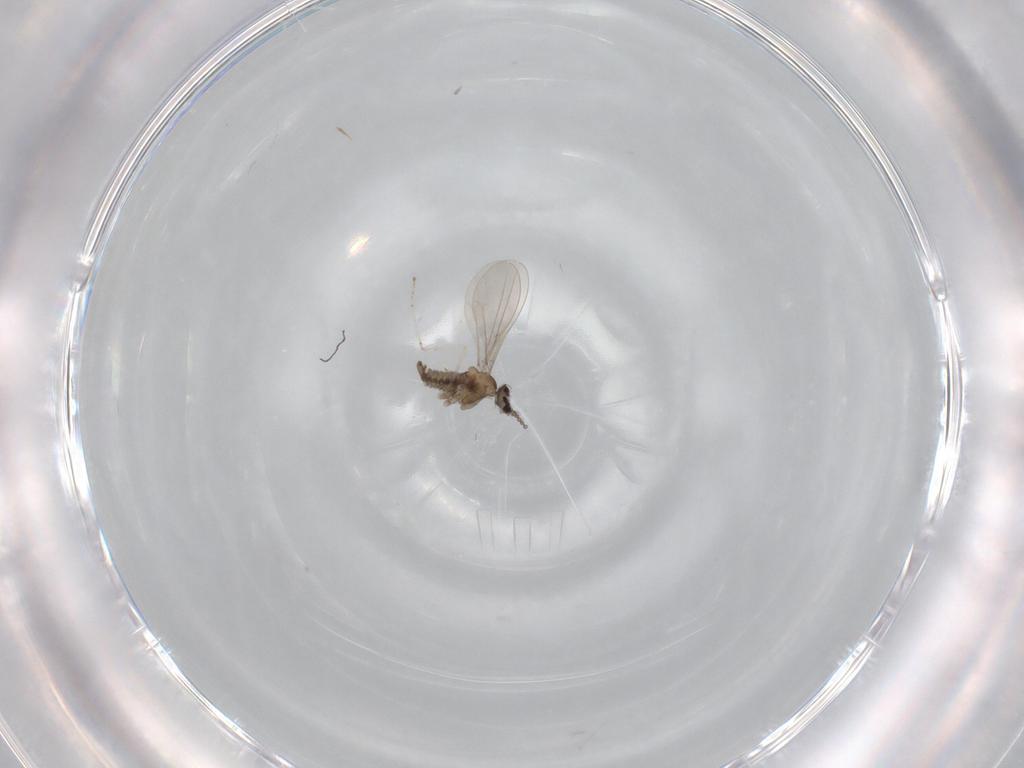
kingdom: Animalia
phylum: Arthropoda
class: Insecta
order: Diptera
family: Cecidomyiidae
